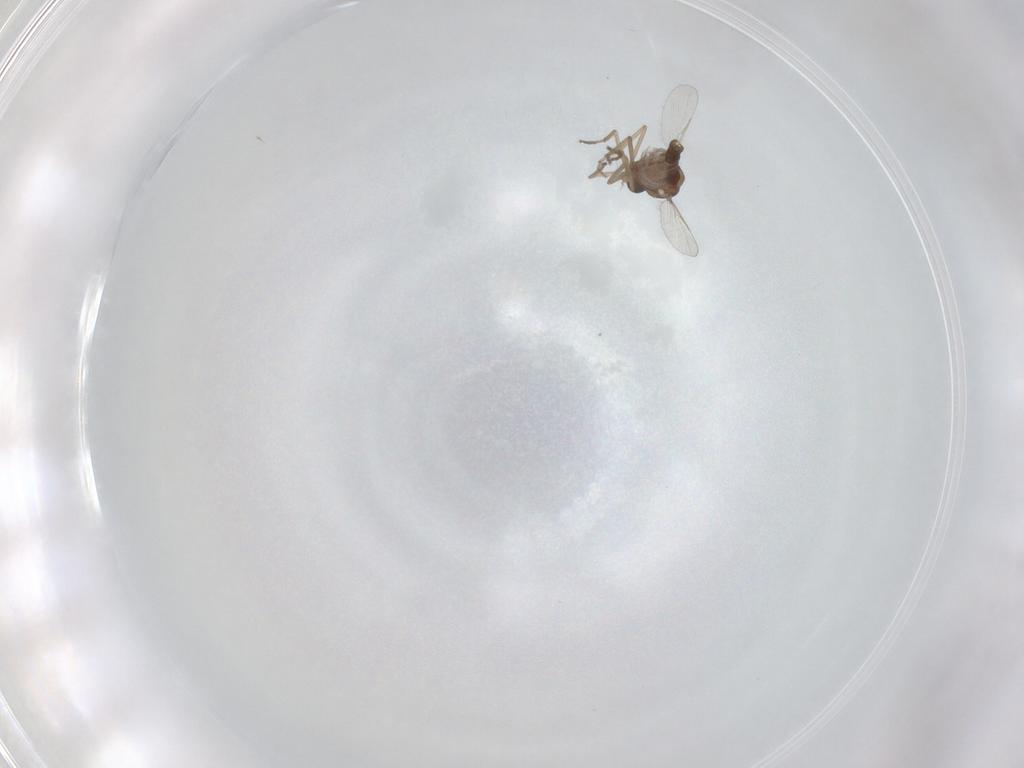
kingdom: Animalia
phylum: Arthropoda
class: Insecta
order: Diptera
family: Ceratopogonidae
